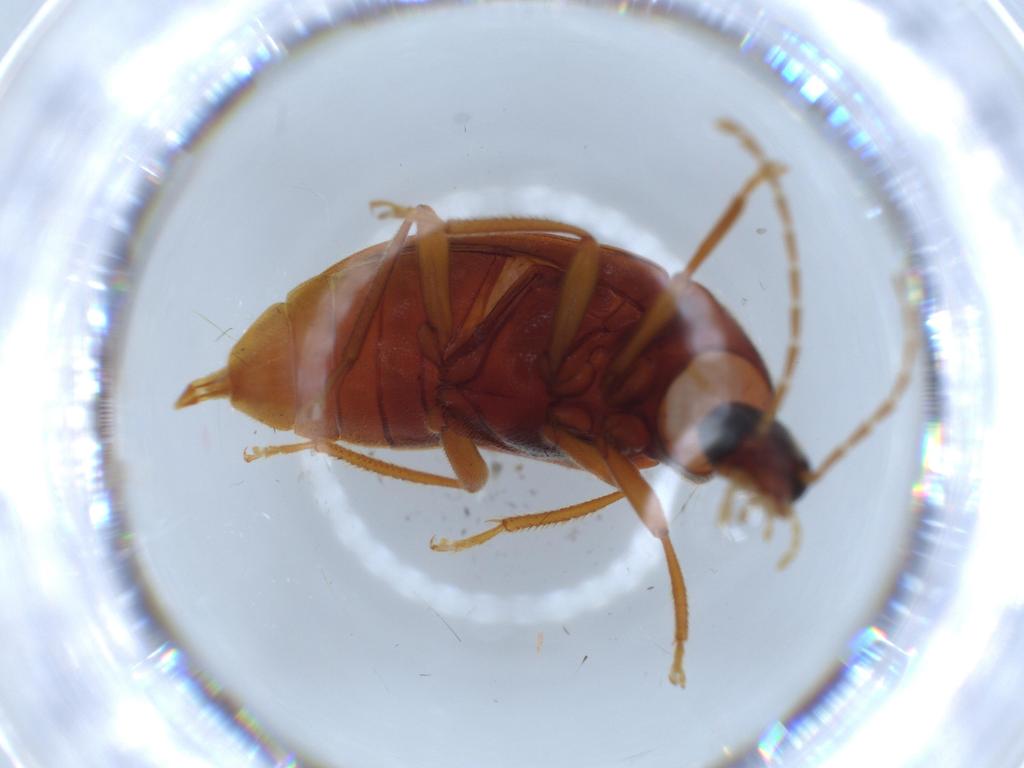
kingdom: Animalia
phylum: Arthropoda
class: Insecta
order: Coleoptera
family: Ptilodactylidae
